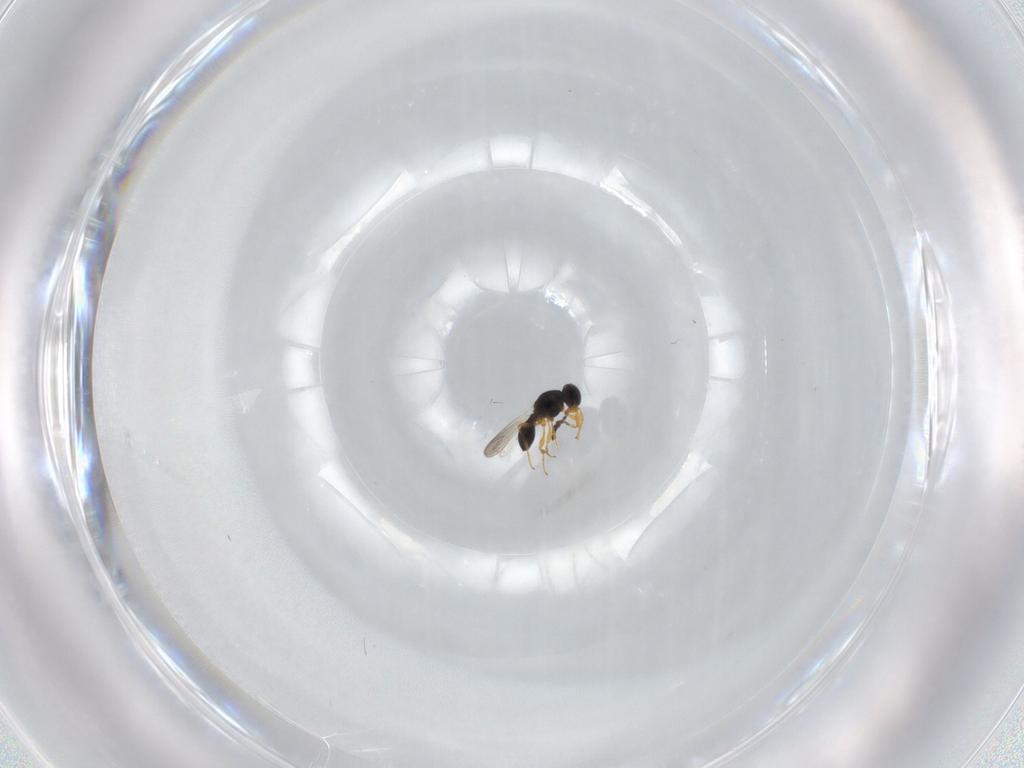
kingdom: Animalia
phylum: Arthropoda
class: Insecta
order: Hymenoptera
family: Platygastridae
